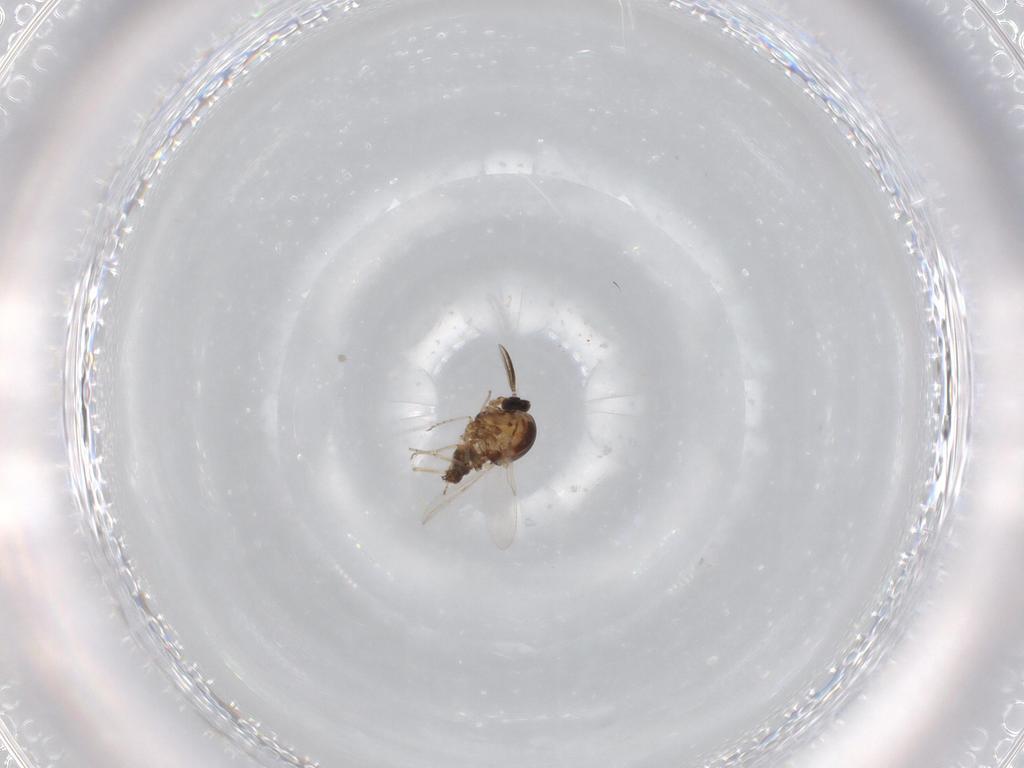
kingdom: Animalia
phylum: Arthropoda
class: Insecta
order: Diptera
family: Ceratopogonidae
